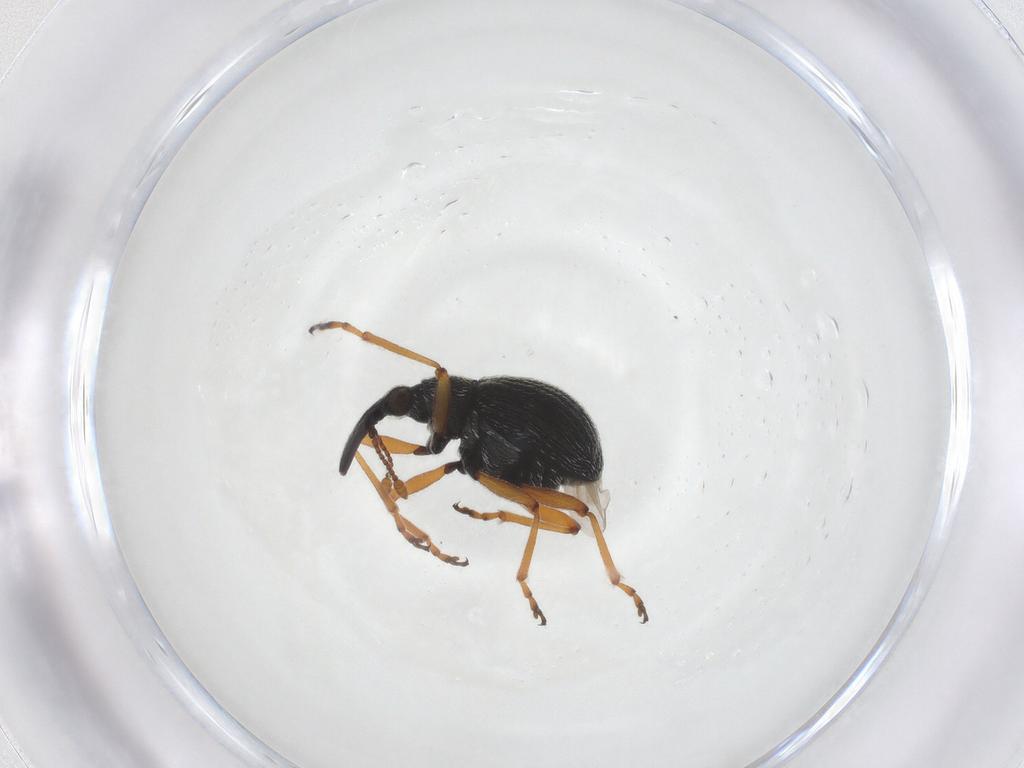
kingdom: Animalia
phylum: Arthropoda
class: Insecta
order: Coleoptera
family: Brentidae
